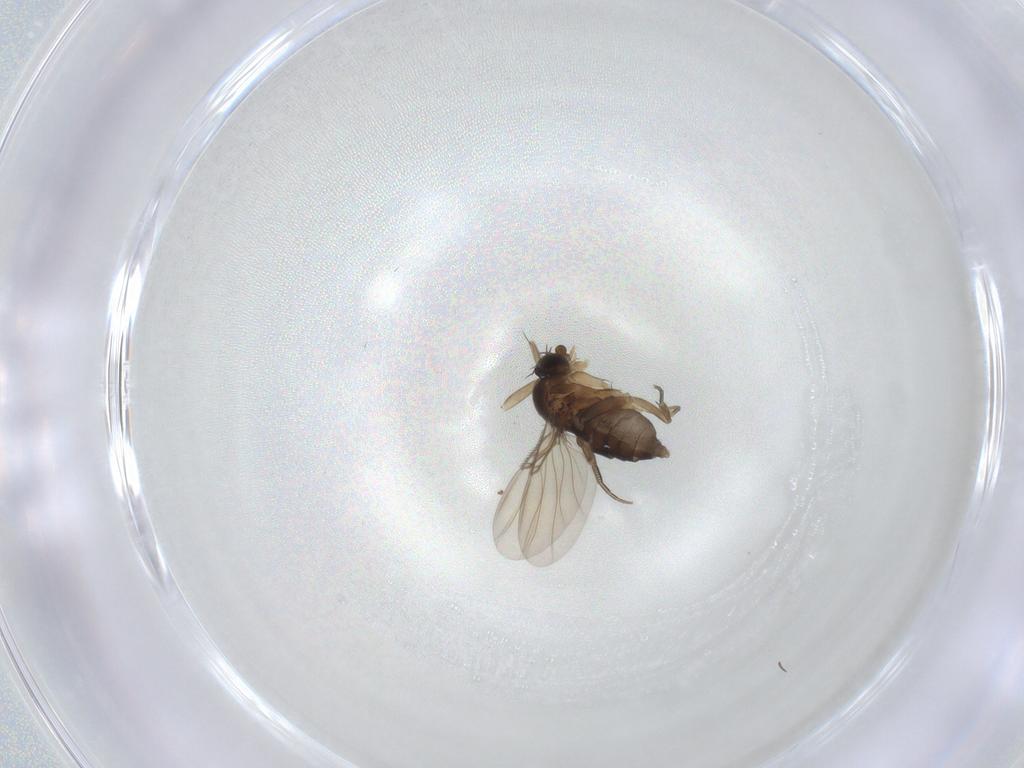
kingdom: Animalia
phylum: Arthropoda
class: Insecta
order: Diptera
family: Phoridae
